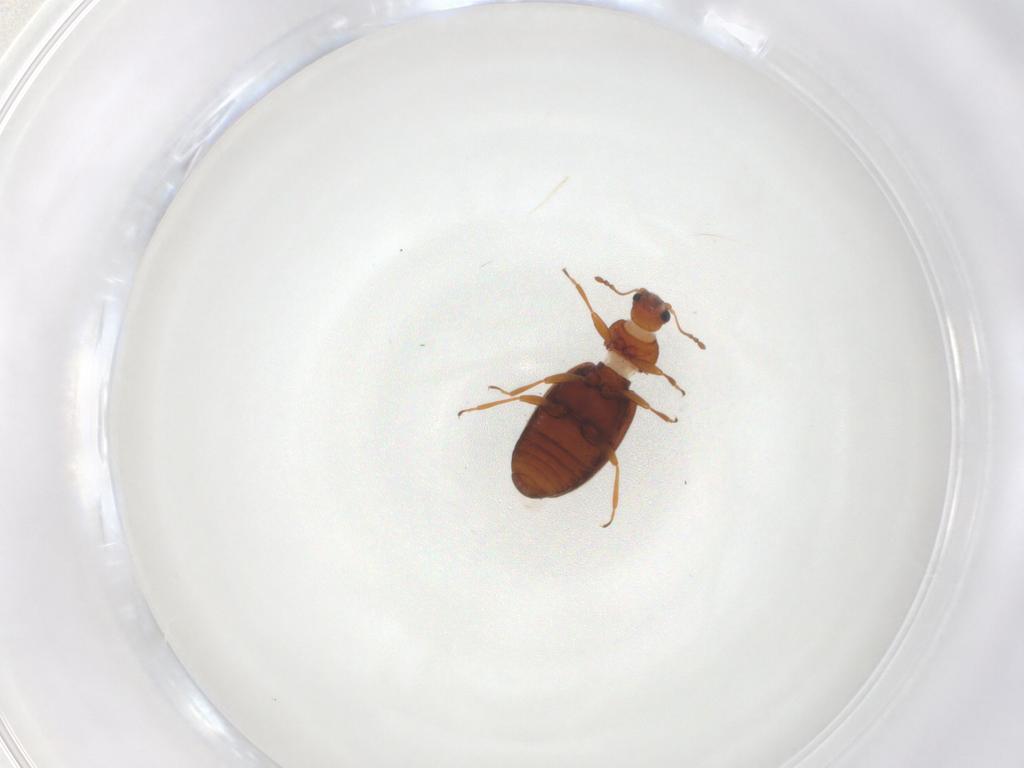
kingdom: Animalia
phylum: Arthropoda
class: Insecta
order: Coleoptera
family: Latridiidae
